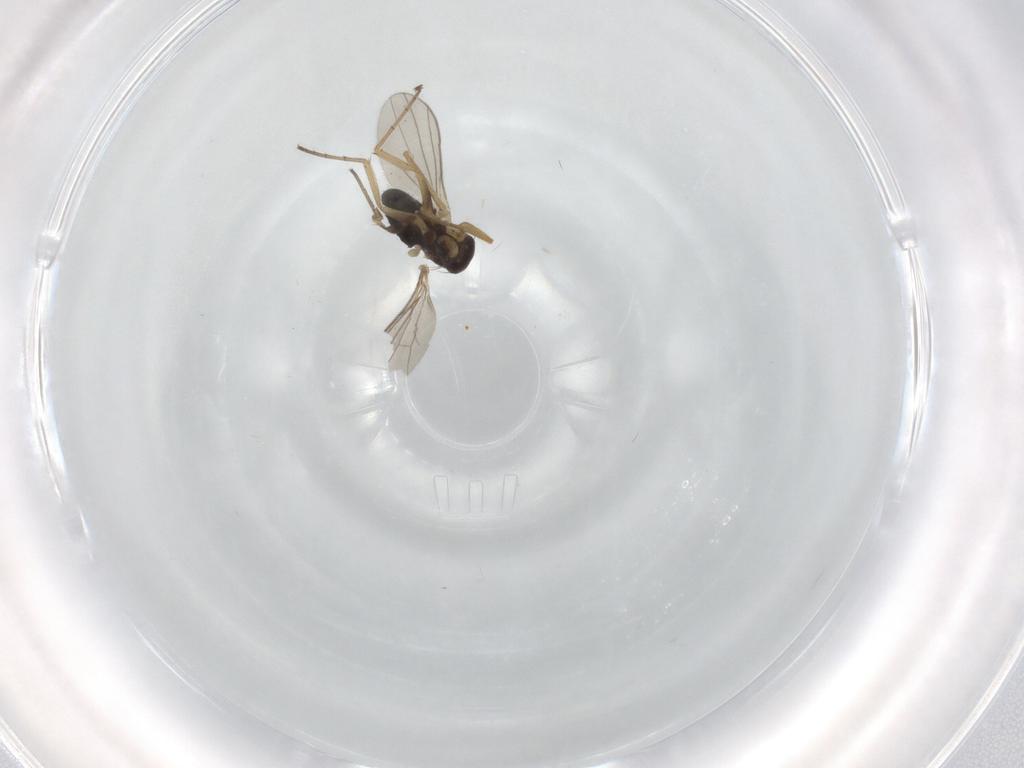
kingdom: Animalia
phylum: Arthropoda
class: Insecta
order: Diptera
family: Dolichopodidae
